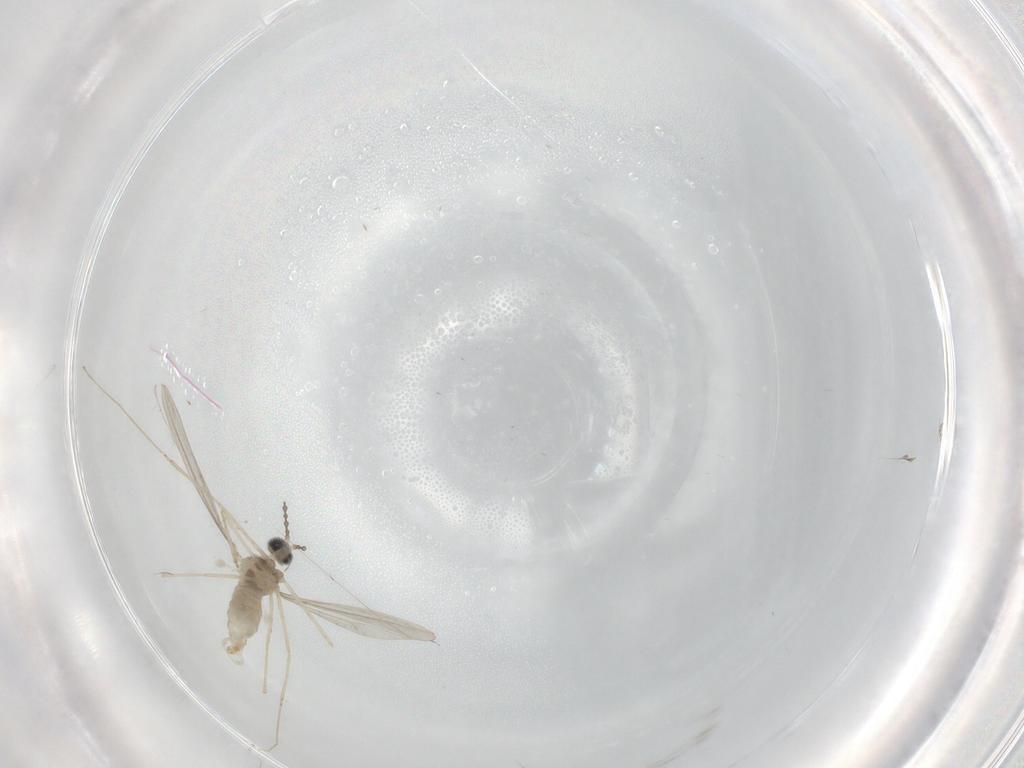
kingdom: Animalia
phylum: Arthropoda
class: Insecta
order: Diptera
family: Cecidomyiidae
